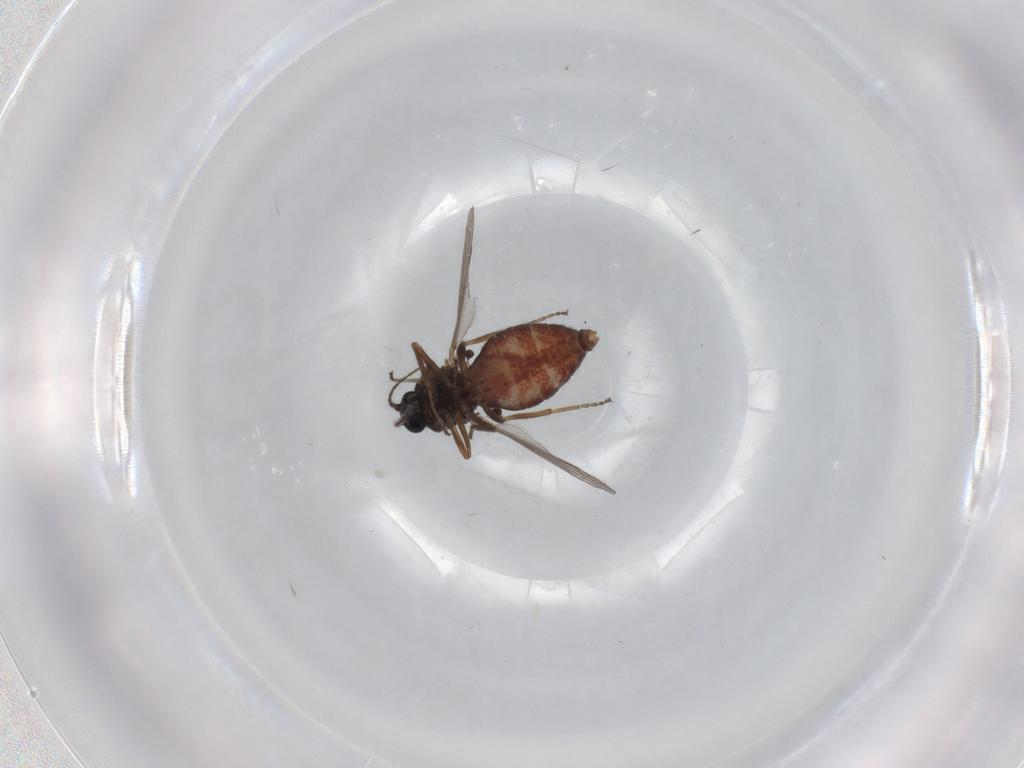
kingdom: Animalia
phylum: Arthropoda
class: Insecta
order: Diptera
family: Ceratopogonidae
